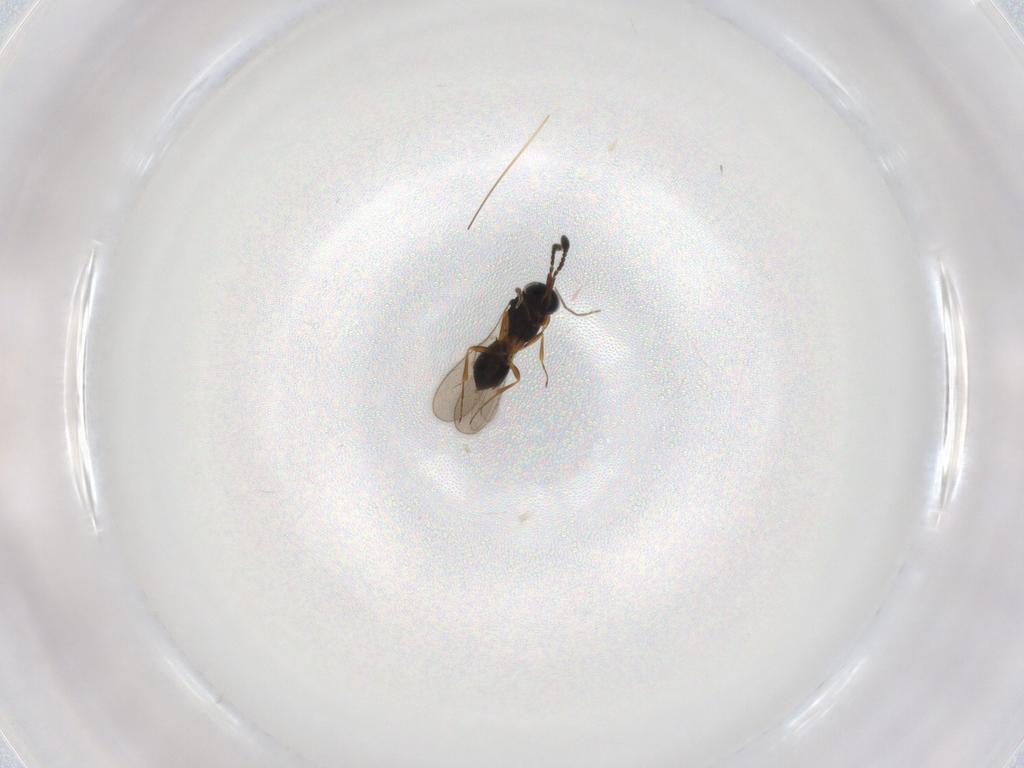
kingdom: Animalia
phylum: Arthropoda
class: Insecta
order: Hymenoptera
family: Scelionidae
